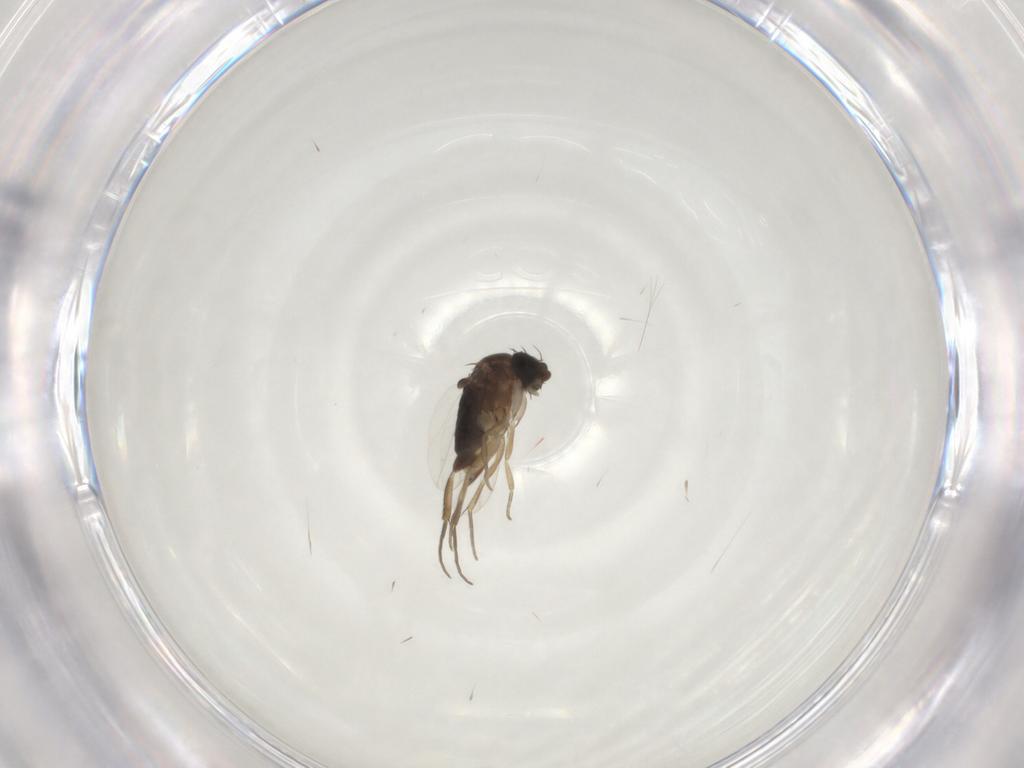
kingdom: Animalia
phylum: Arthropoda
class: Insecta
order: Diptera
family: Phoridae
